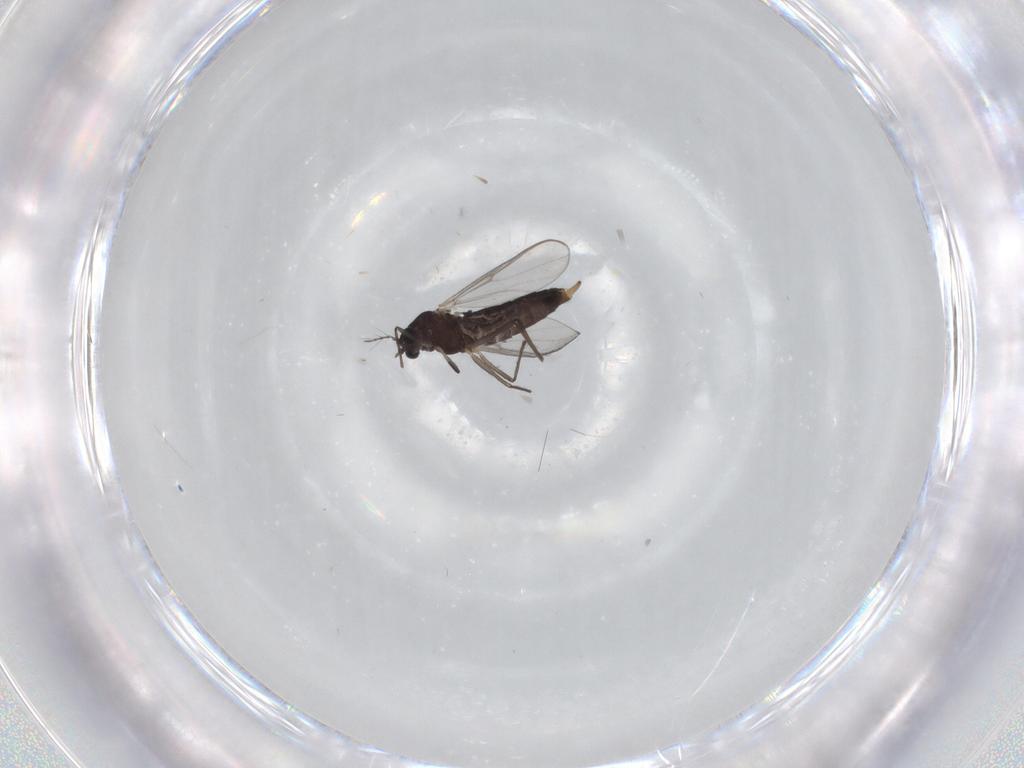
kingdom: Animalia
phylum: Arthropoda
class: Insecta
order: Diptera
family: Chironomidae
